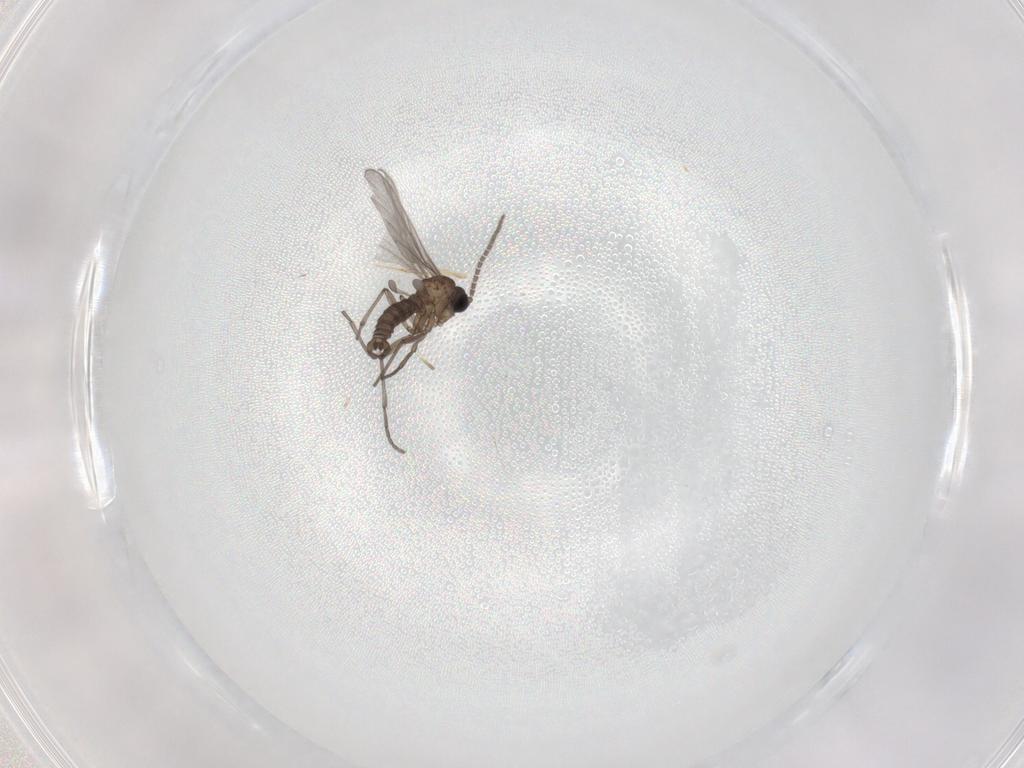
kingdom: Animalia
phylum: Arthropoda
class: Insecta
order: Diptera
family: Sciaridae
